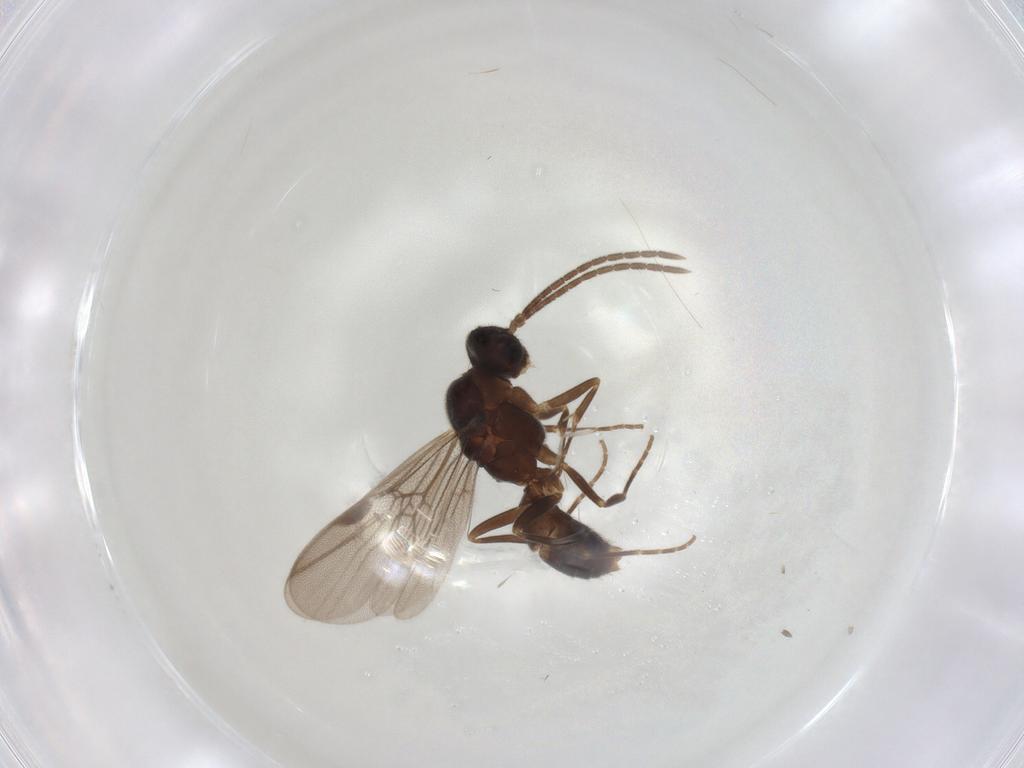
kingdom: Animalia
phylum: Arthropoda
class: Insecta
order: Hymenoptera
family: Formicidae
